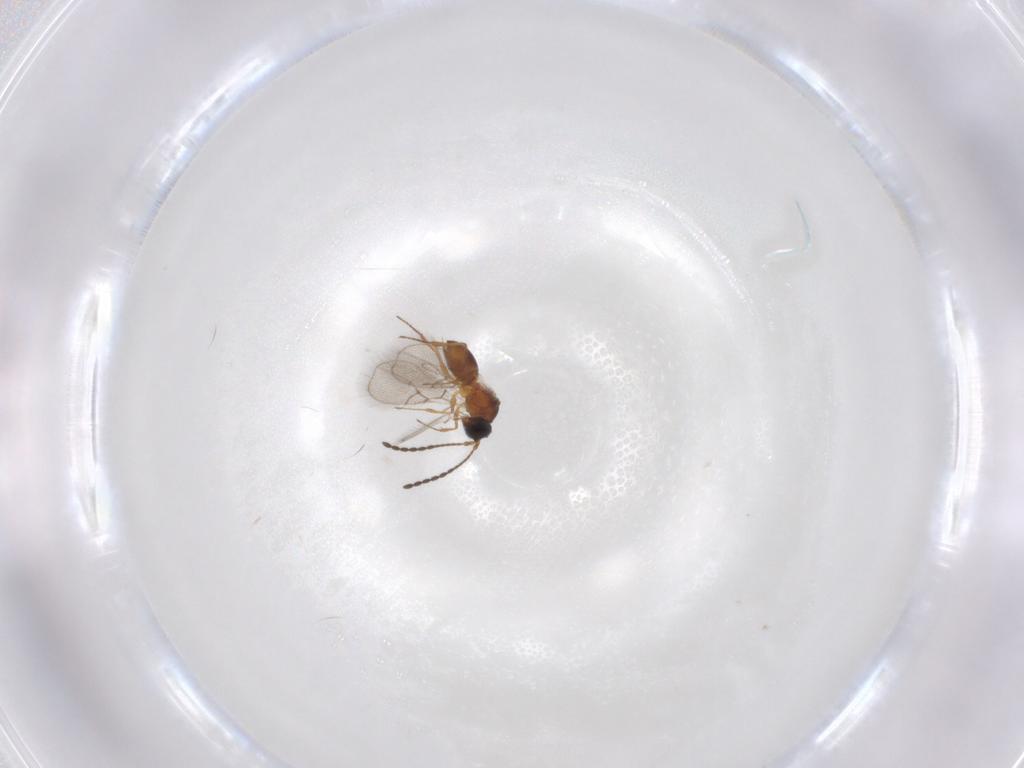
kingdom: Animalia
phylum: Arthropoda
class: Insecta
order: Hymenoptera
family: Figitidae
